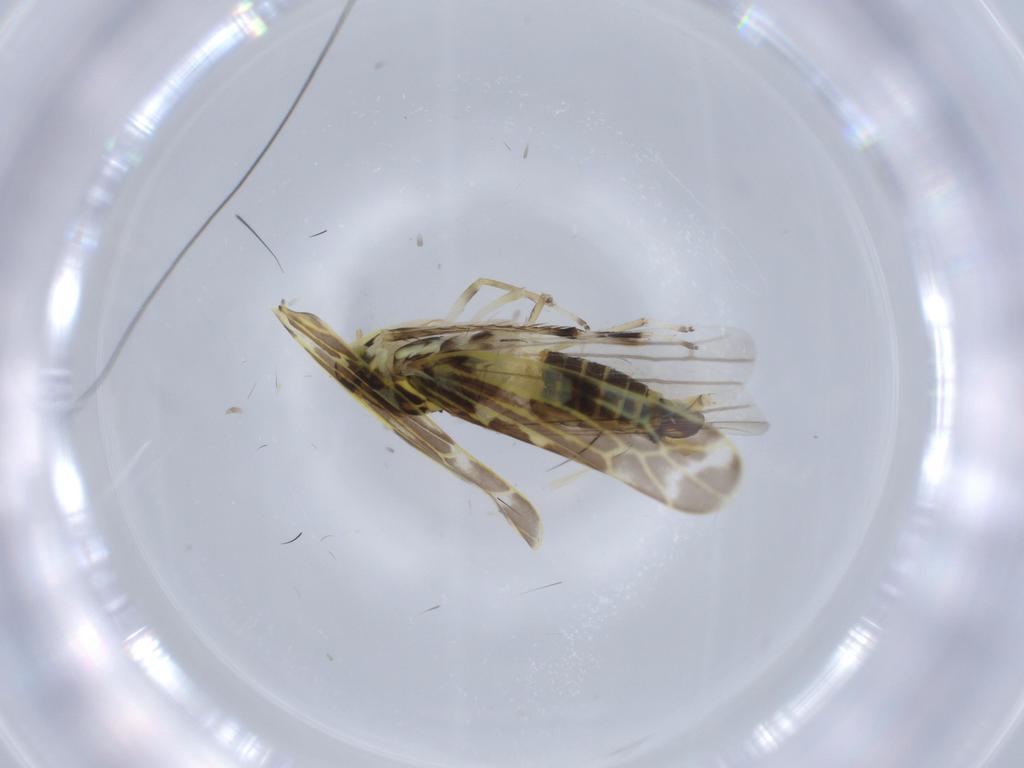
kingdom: Animalia
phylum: Arthropoda
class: Insecta
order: Hemiptera
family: Cicadellidae
